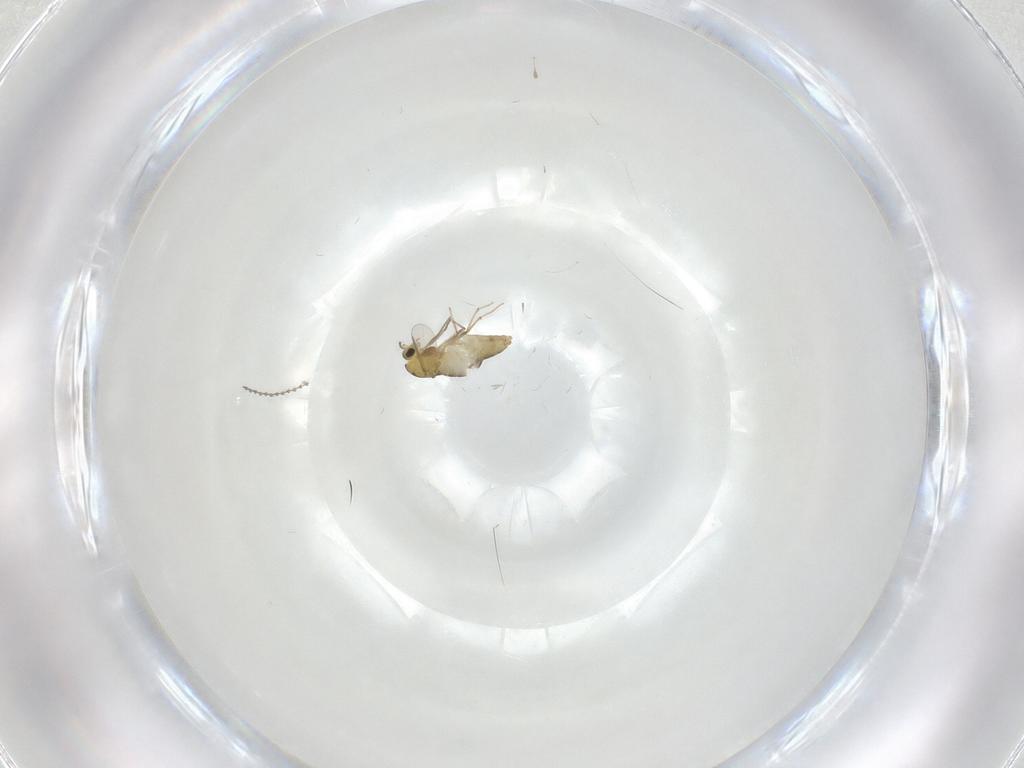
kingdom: Animalia
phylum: Arthropoda
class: Insecta
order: Diptera
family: Chironomidae
